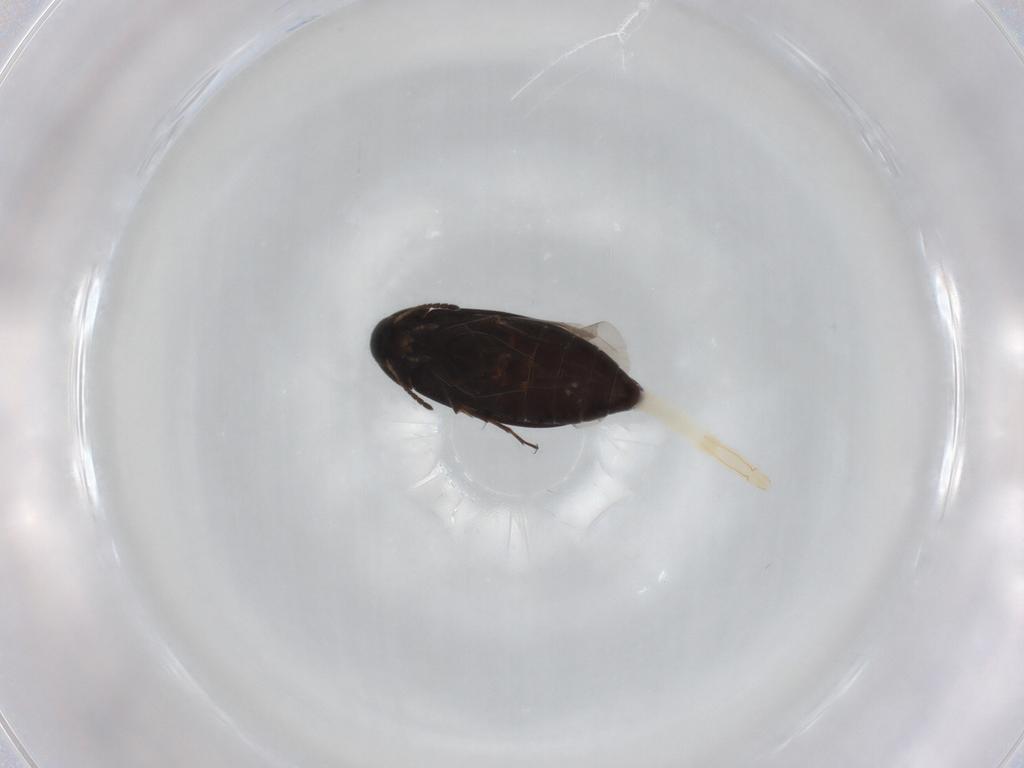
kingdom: Animalia
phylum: Arthropoda
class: Insecta
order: Coleoptera
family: Scraptiidae
